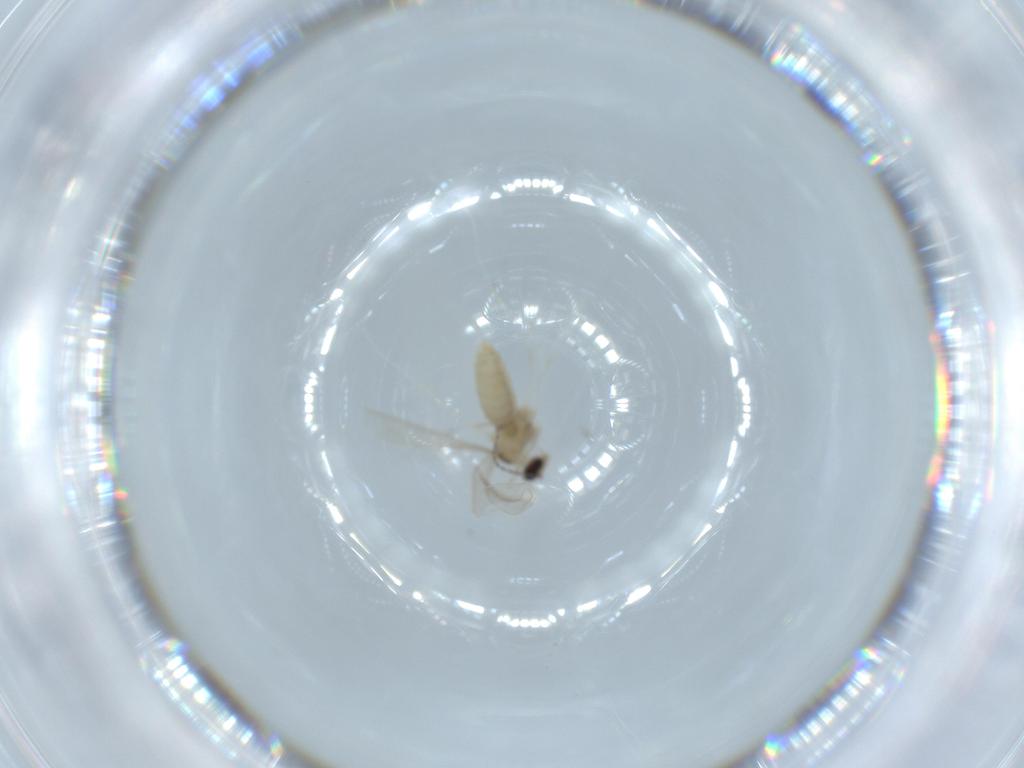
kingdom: Animalia
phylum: Arthropoda
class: Insecta
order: Diptera
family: Cecidomyiidae
